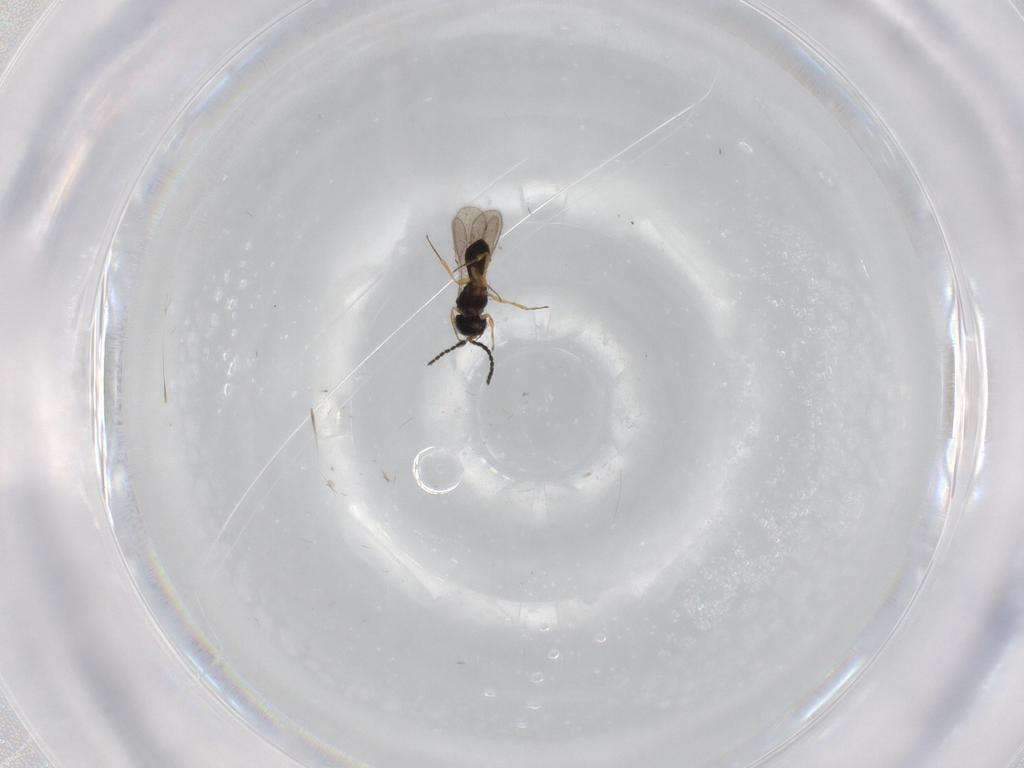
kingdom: Animalia
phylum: Arthropoda
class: Insecta
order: Hymenoptera
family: Scelionidae
